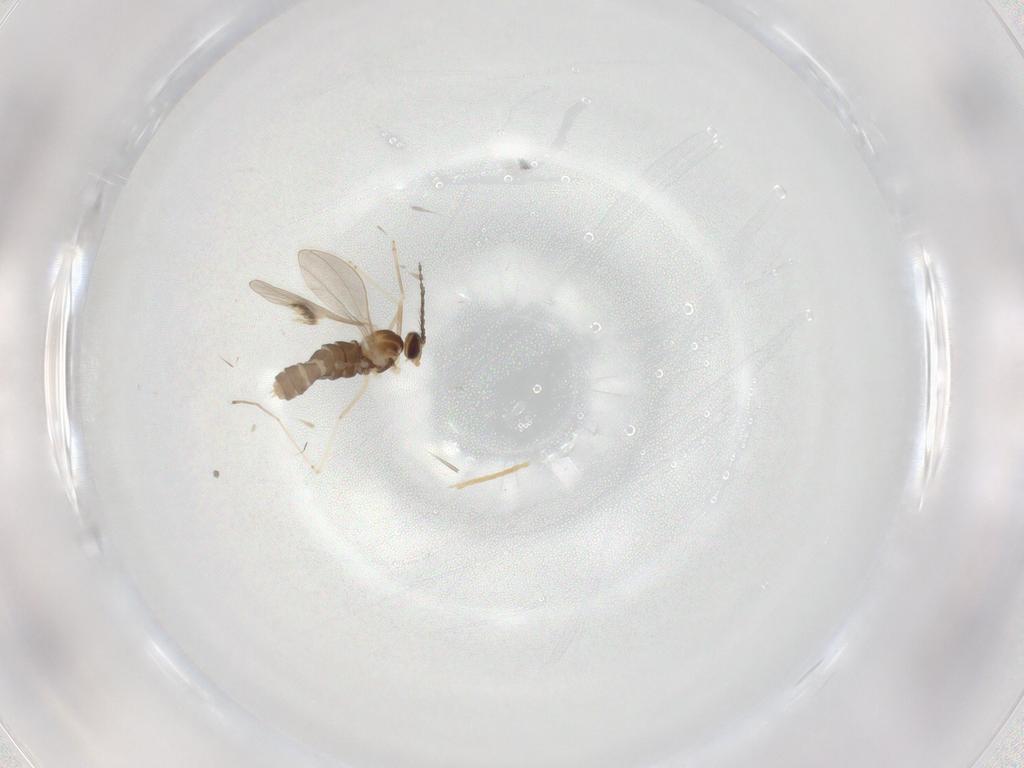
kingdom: Animalia
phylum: Arthropoda
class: Insecta
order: Diptera
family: Cecidomyiidae
